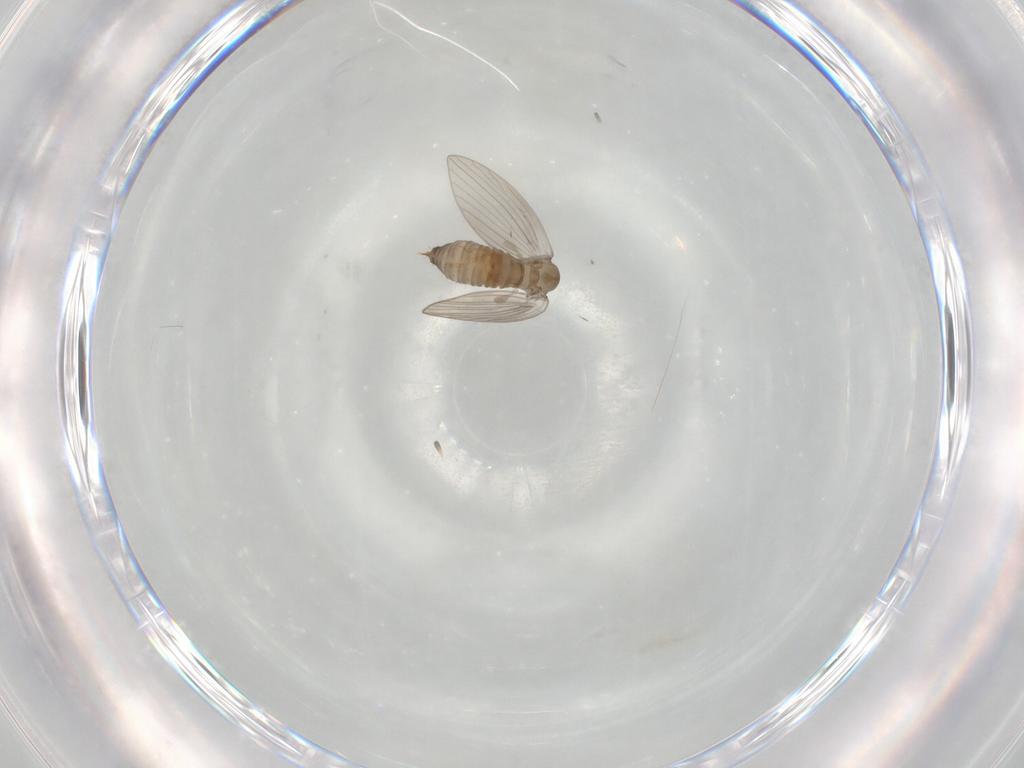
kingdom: Animalia
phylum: Arthropoda
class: Insecta
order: Diptera
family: Psychodidae
